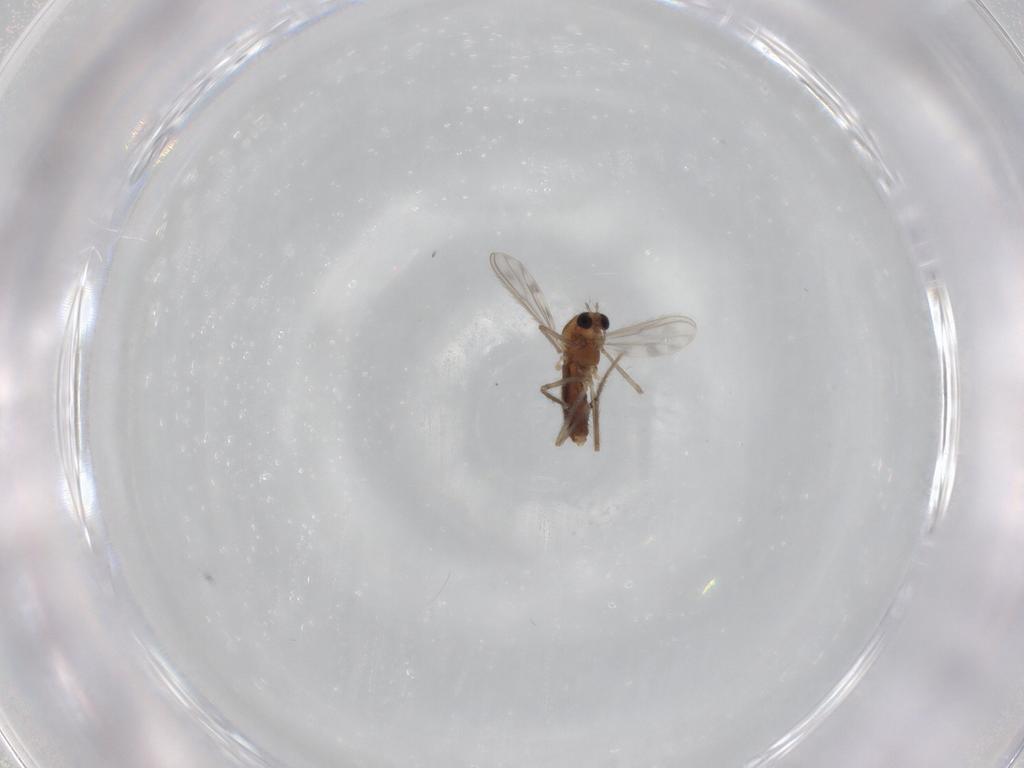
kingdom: Animalia
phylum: Arthropoda
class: Insecta
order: Diptera
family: Chironomidae
